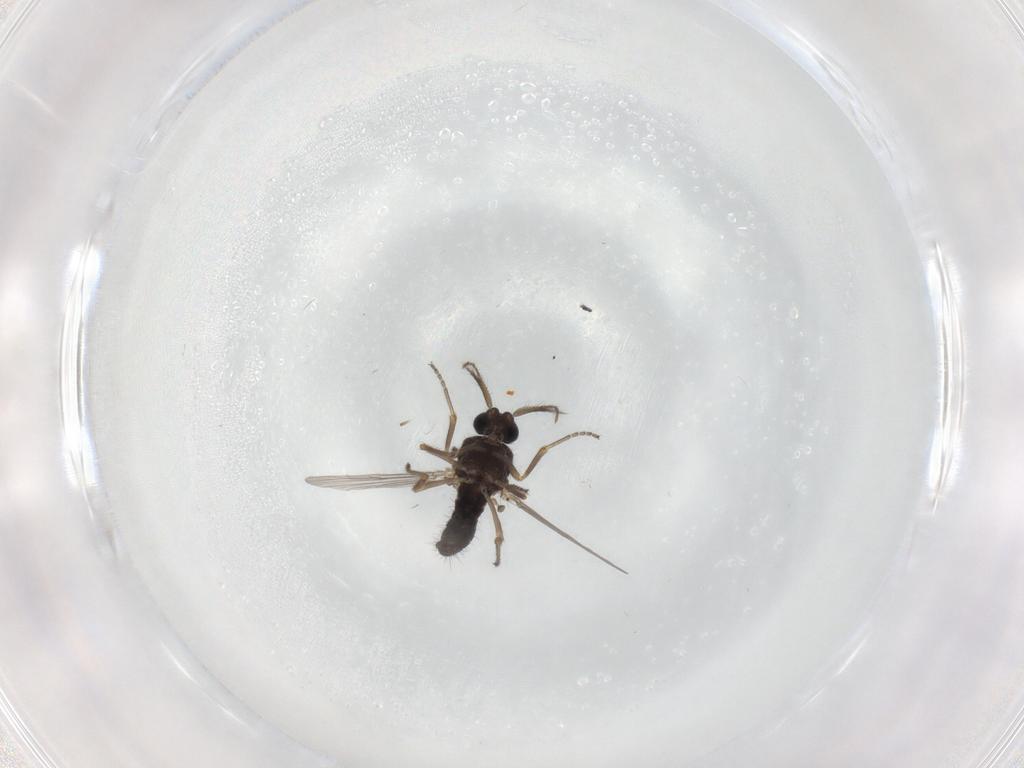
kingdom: Animalia
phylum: Arthropoda
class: Insecta
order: Diptera
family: Ceratopogonidae
